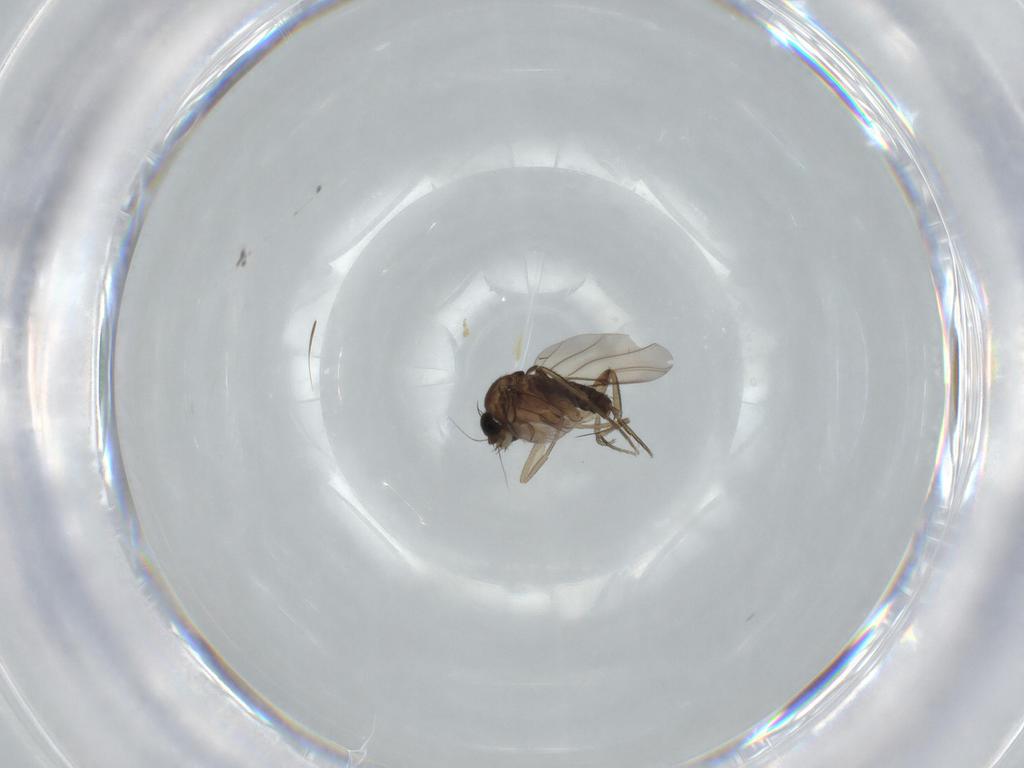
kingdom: Animalia
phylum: Arthropoda
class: Insecta
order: Diptera
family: Phoridae
